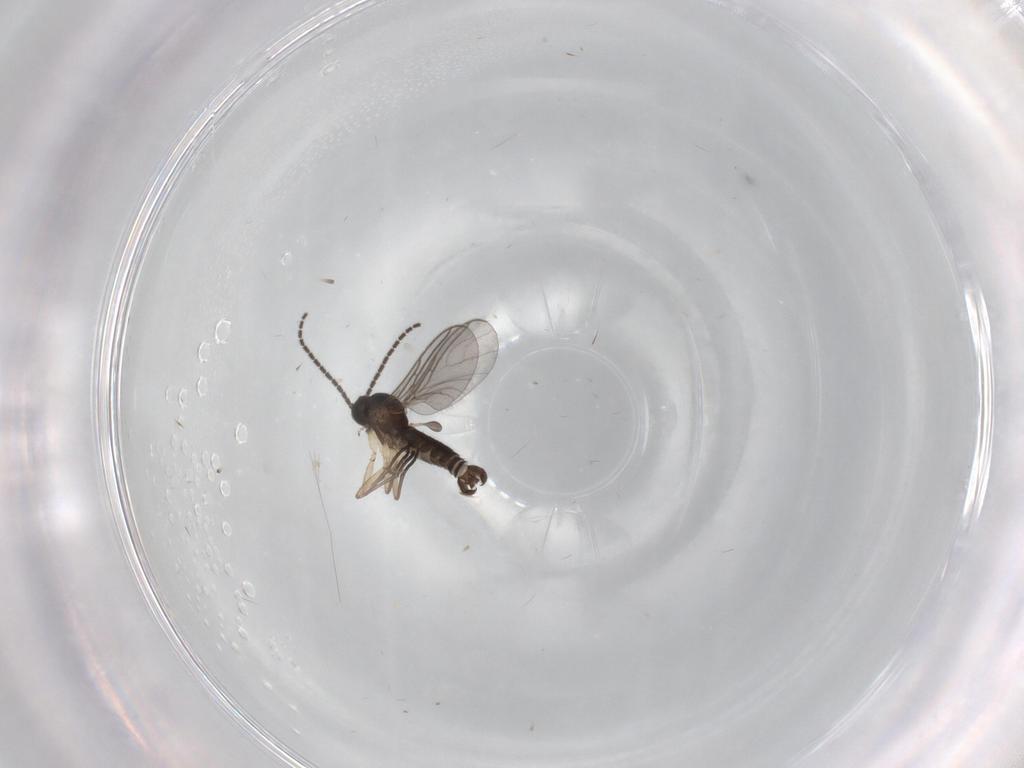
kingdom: Animalia
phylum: Arthropoda
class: Insecta
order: Diptera
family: Sciaridae
